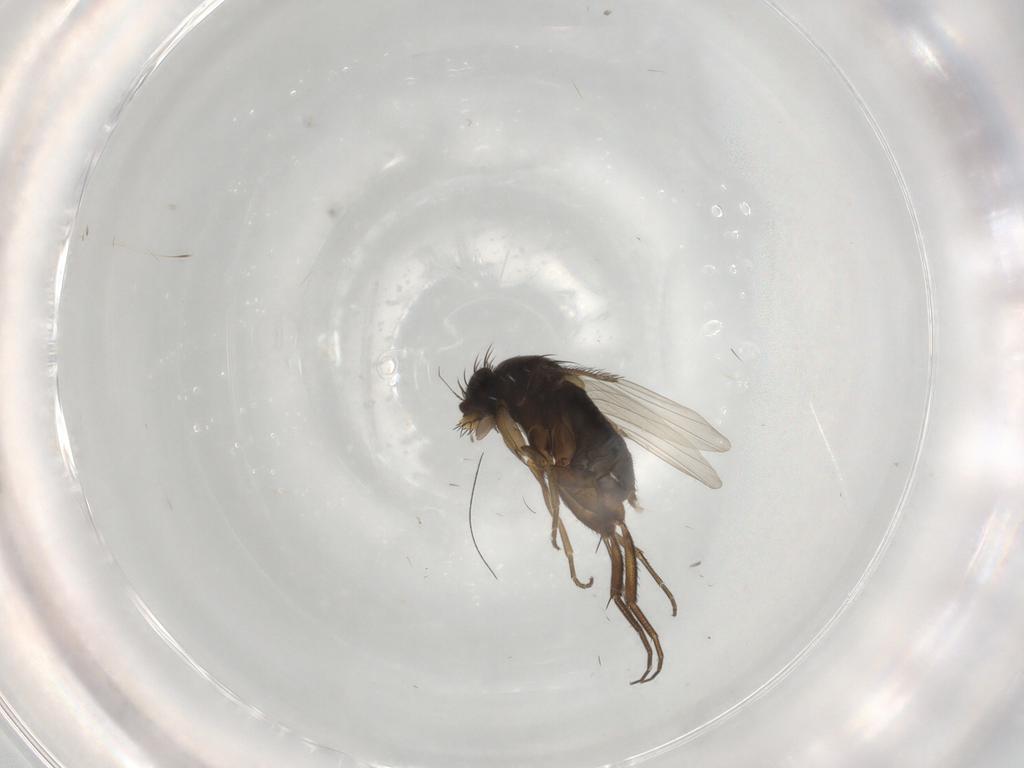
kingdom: Animalia
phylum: Arthropoda
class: Insecta
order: Diptera
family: Phoridae
